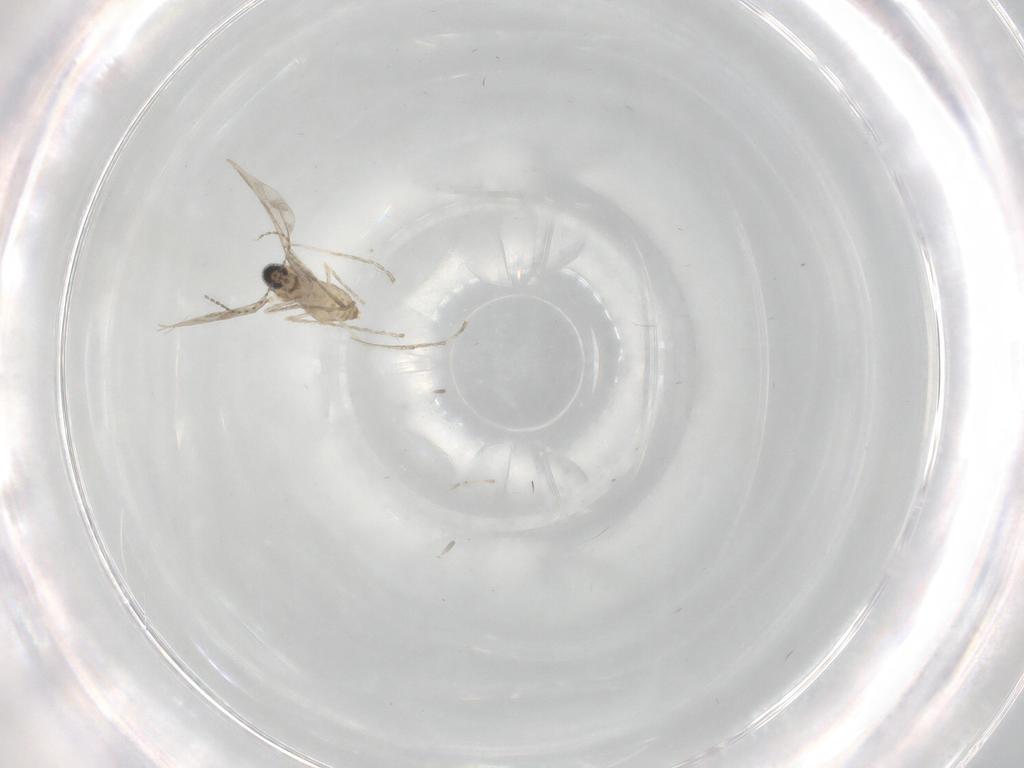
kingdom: Animalia
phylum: Arthropoda
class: Insecta
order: Diptera
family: Cecidomyiidae
